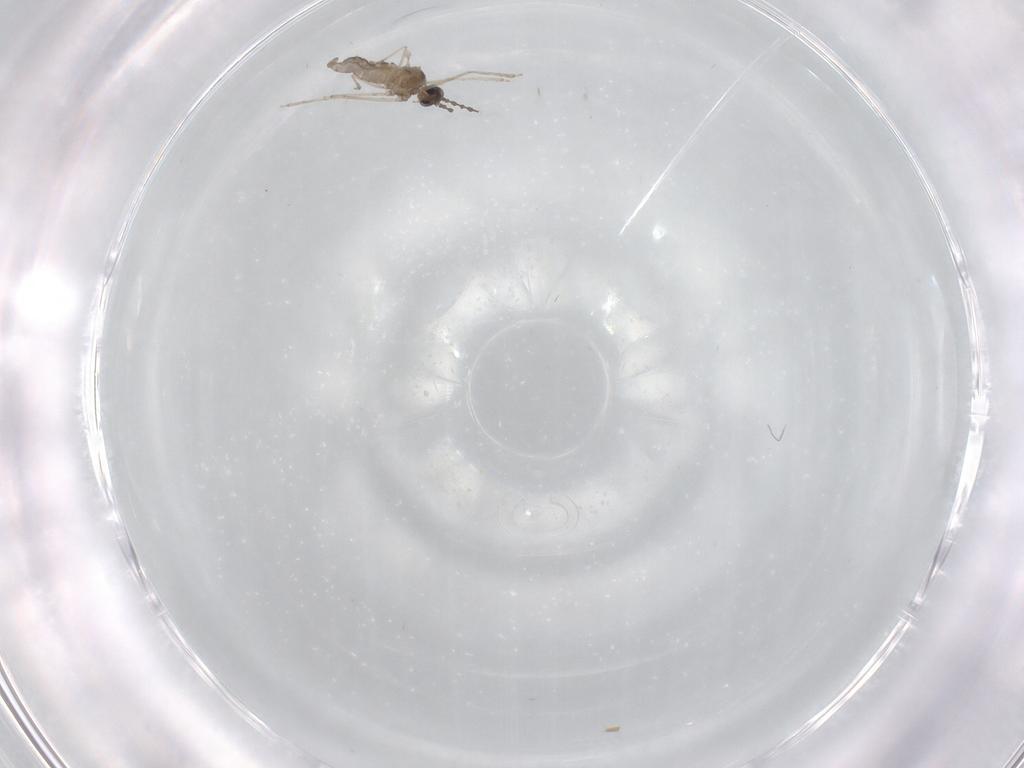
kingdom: Animalia
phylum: Arthropoda
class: Insecta
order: Diptera
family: Cecidomyiidae
